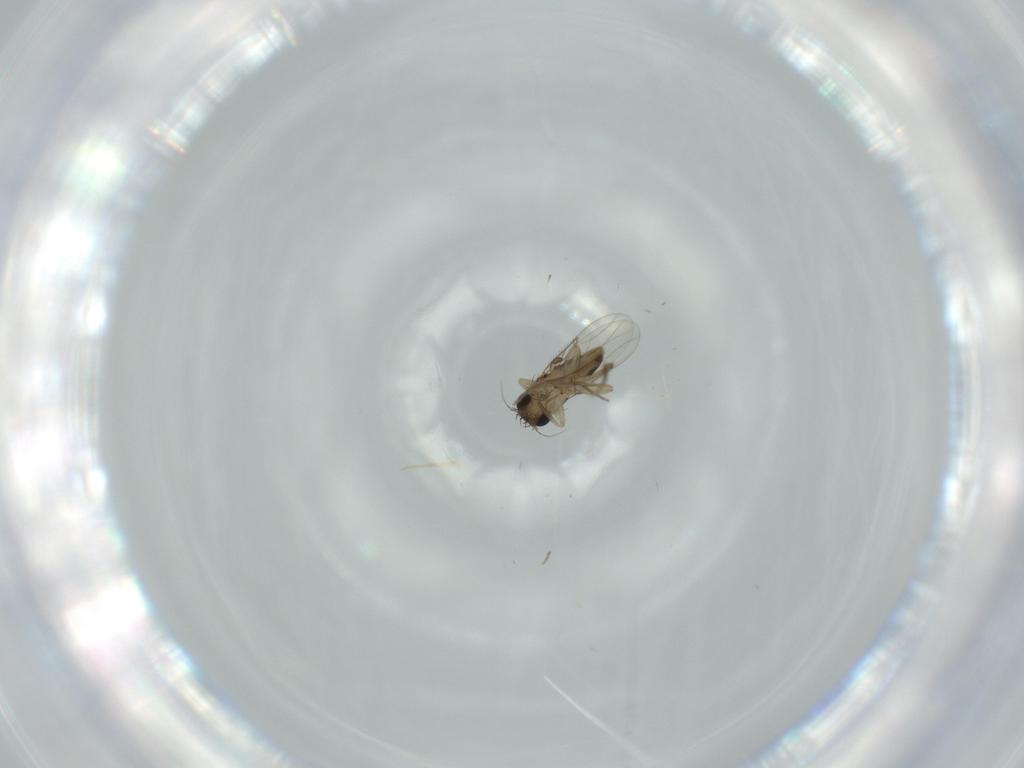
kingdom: Animalia
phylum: Arthropoda
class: Insecta
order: Diptera
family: Phoridae
